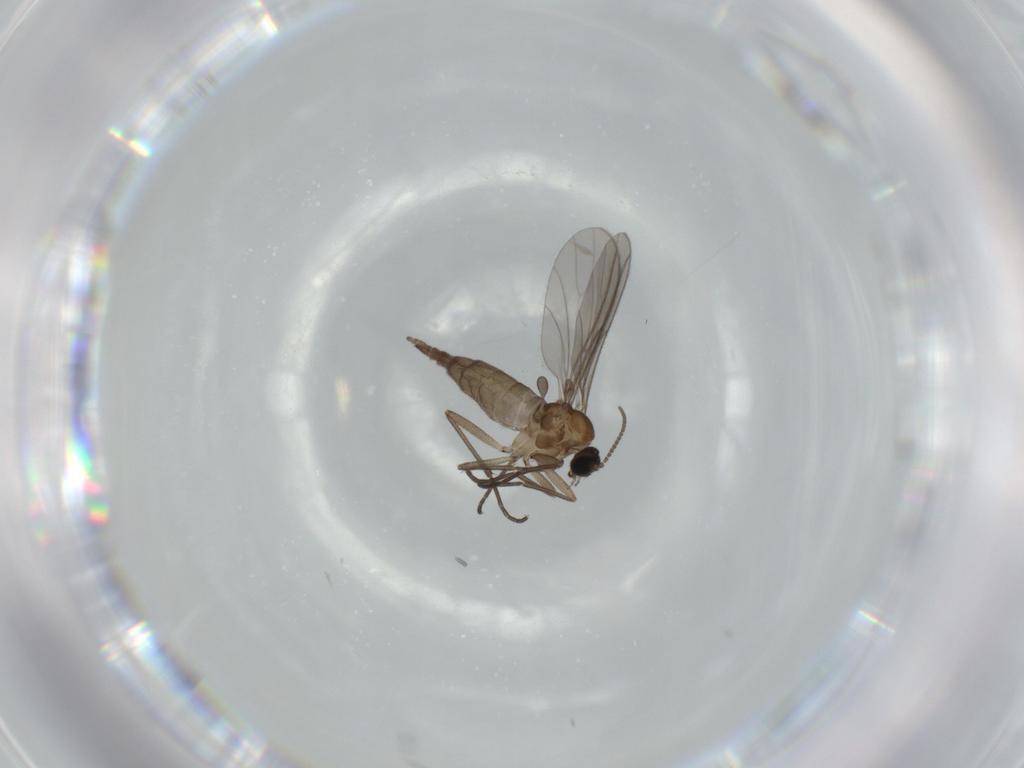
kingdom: Animalia
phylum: Arthropoda
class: Insecta
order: Diptera
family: Sciaridae
